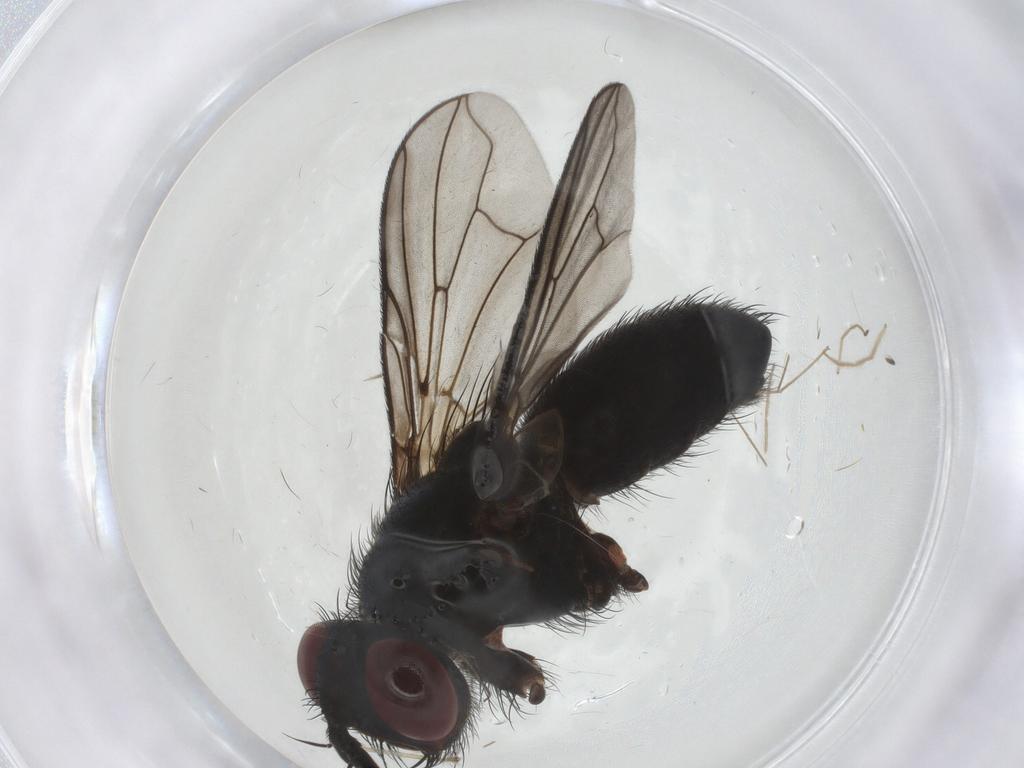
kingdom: Animalia
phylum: Arthropoda
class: Insecta
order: Diptera
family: Chironomidae
